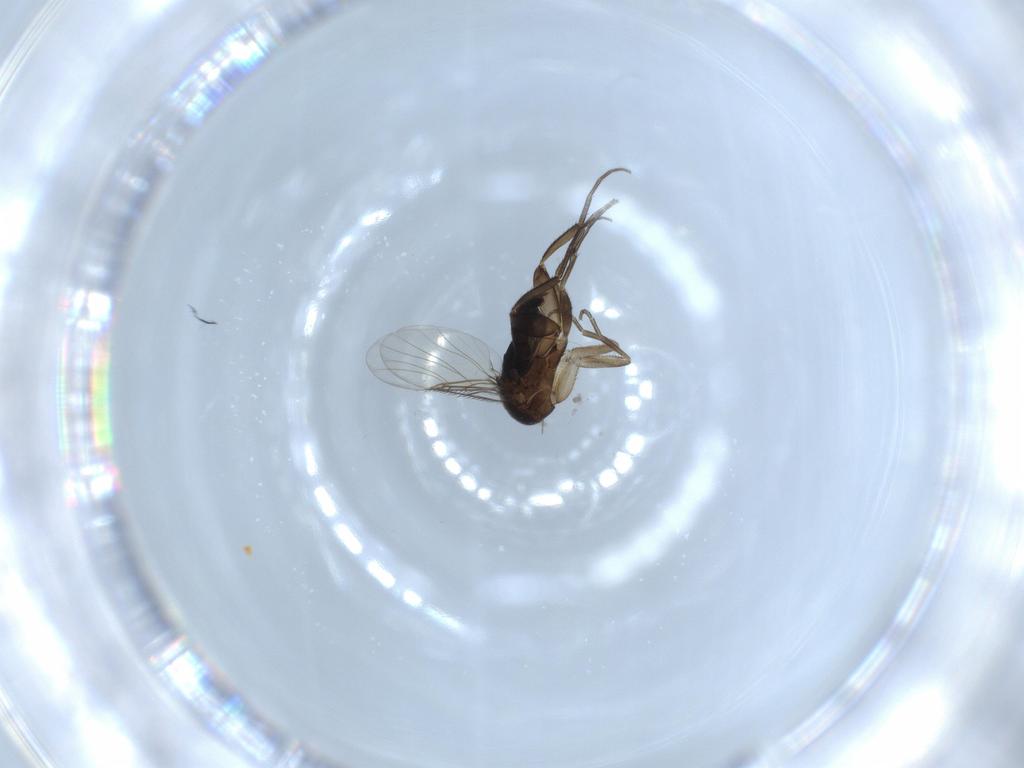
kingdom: Animalia
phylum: Arthropoda
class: Insecta
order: Diptera
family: Phoridae
